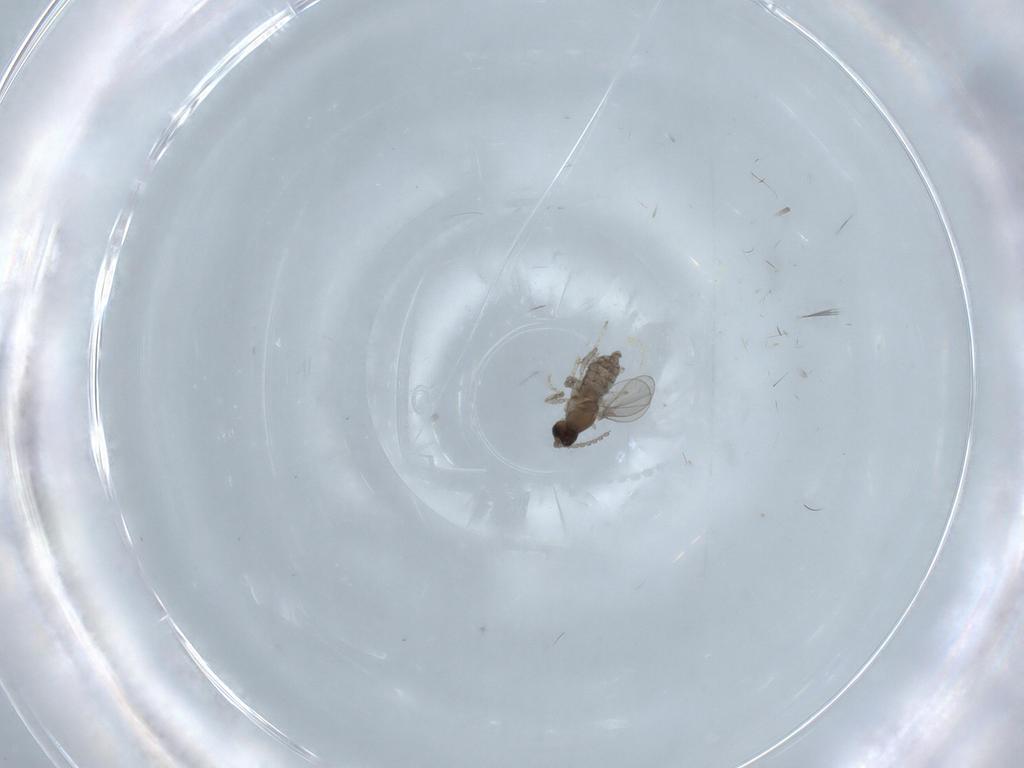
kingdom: Animalia
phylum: Arthropoda
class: Insecta
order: Diptera
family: Cecidomyiidae
